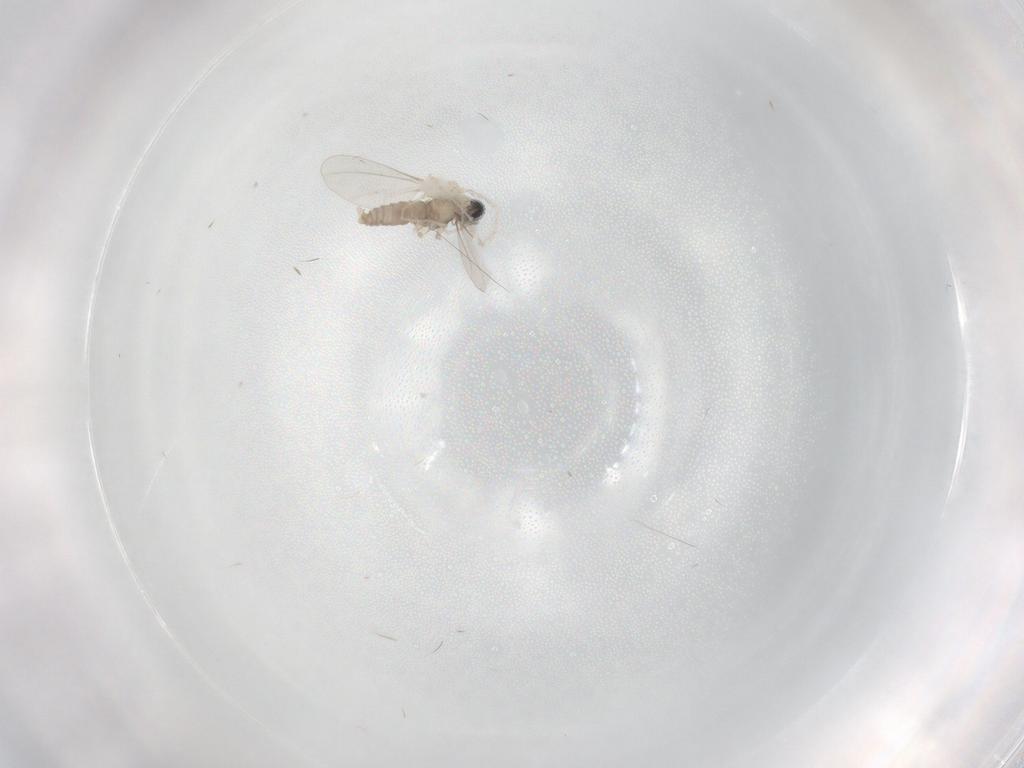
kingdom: Animalia
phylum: Arthropoda
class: Insecta
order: Diptera
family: Cecidomyiidae
